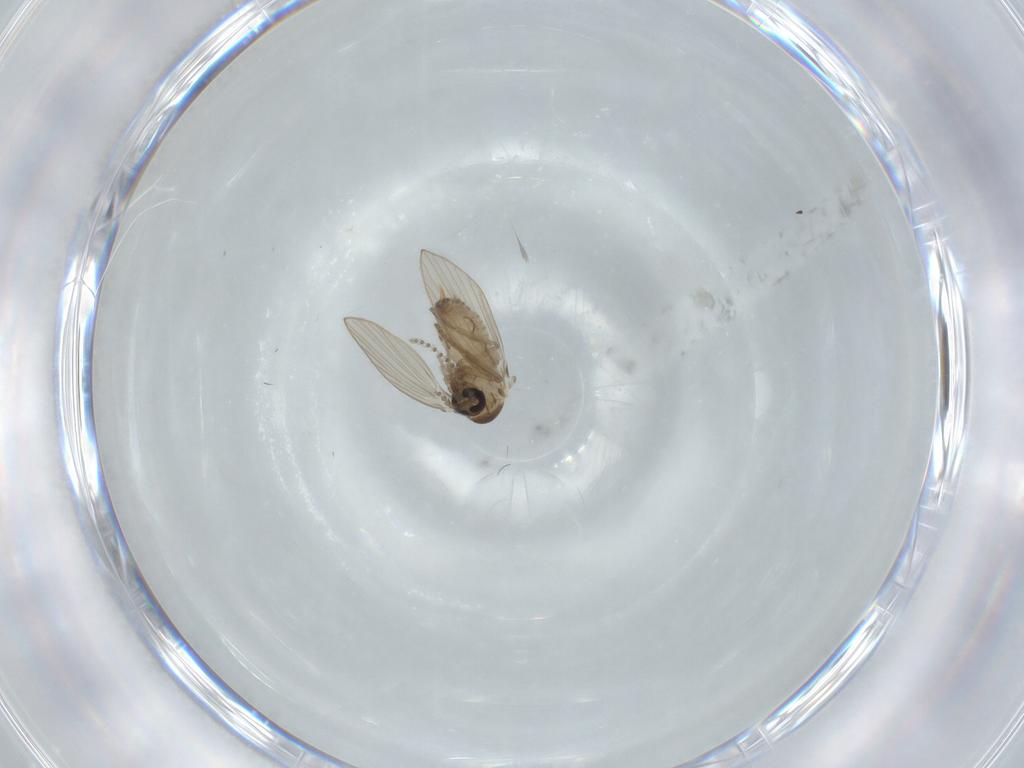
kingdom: Animalia
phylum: Arthropoda
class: Insecta
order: Diptera
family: Psychodidae
